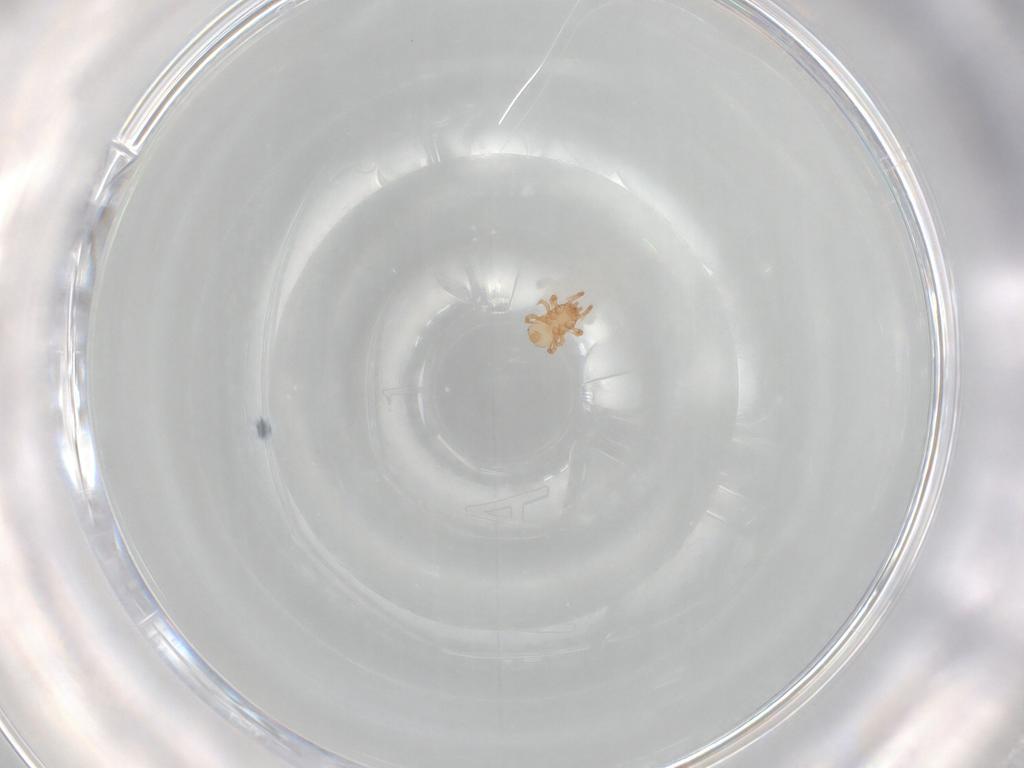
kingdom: Animalia
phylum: Arthropoda
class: Arachnida
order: Mesostigmata
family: Ascidae
